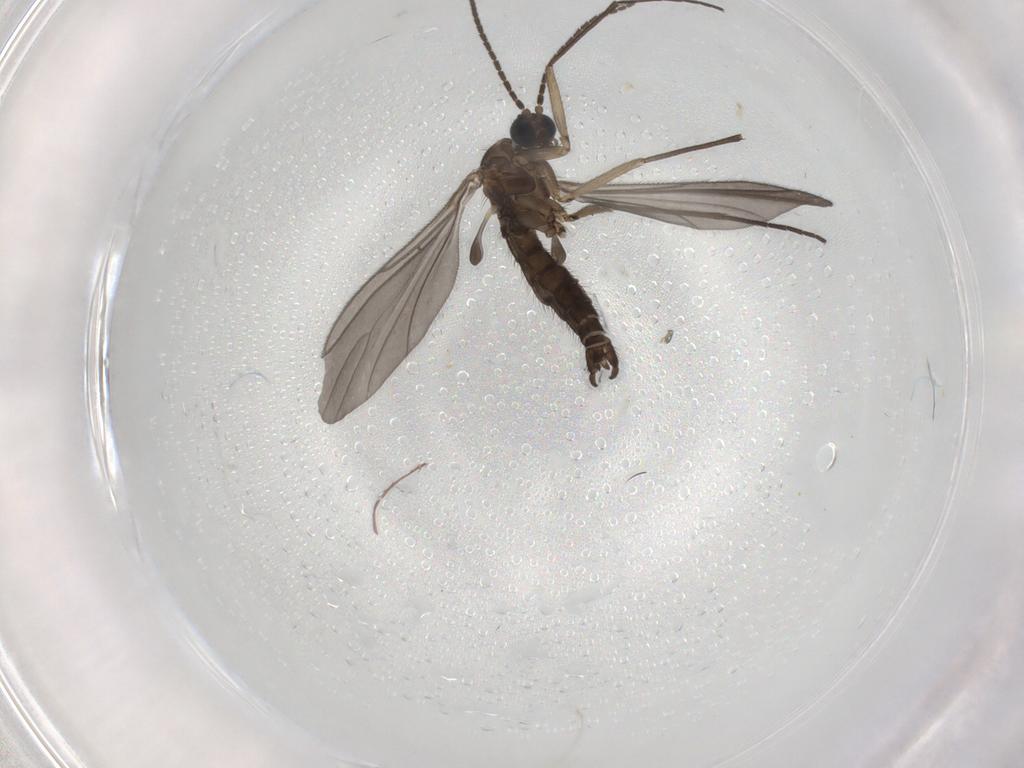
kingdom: Animalia
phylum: Arthropoda
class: Insecta
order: Diptera
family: Sciaridae
